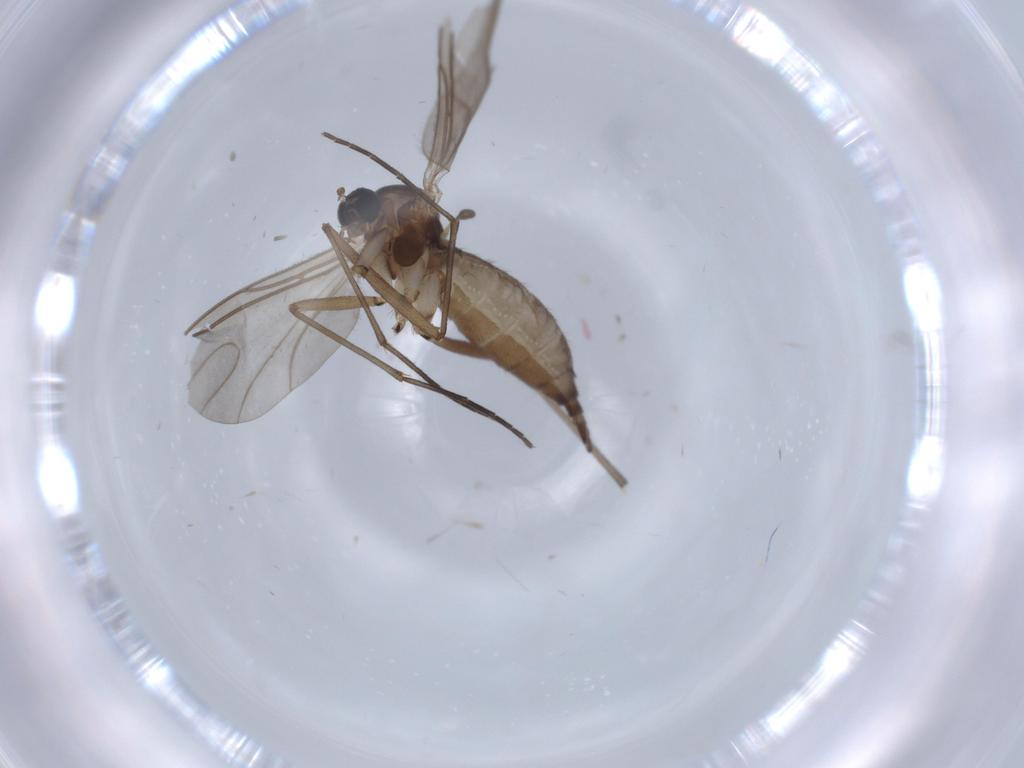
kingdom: Animalia
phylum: Arthropoda
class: Insecta
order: Diptera
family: Sciaridae
